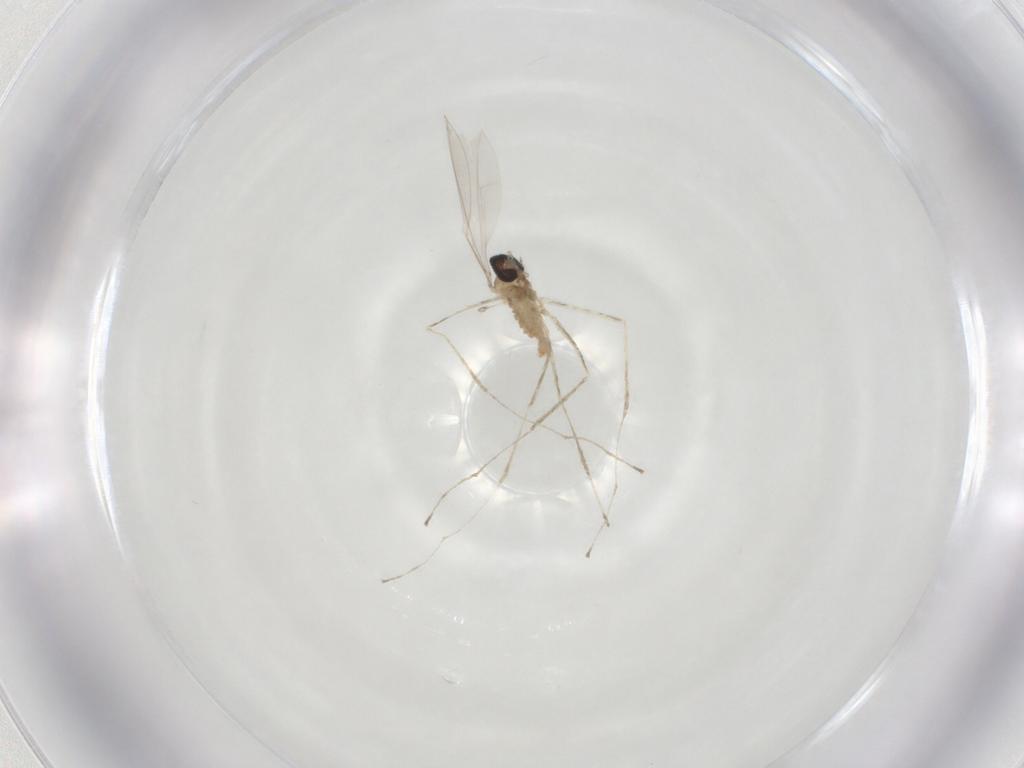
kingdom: Animalia
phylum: Arthropoda
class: Insecta
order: Diptera
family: Cecidomyiidae
